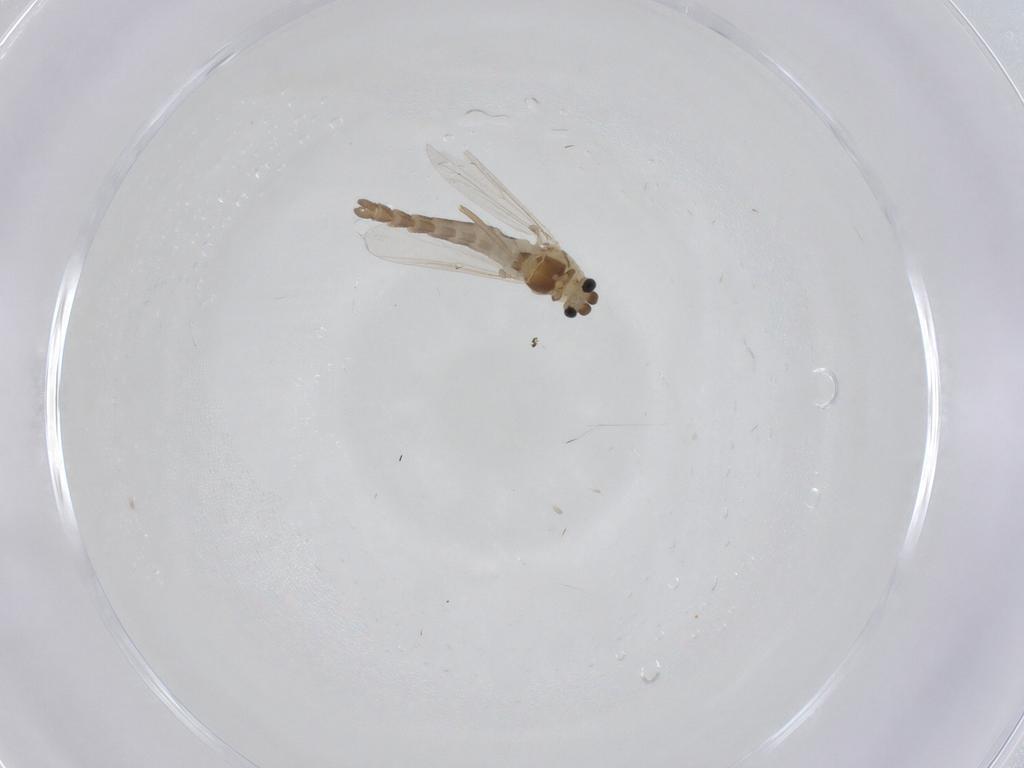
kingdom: Animalia
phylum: Arthropoda
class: Insecta
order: Diptera
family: Chironomidae
